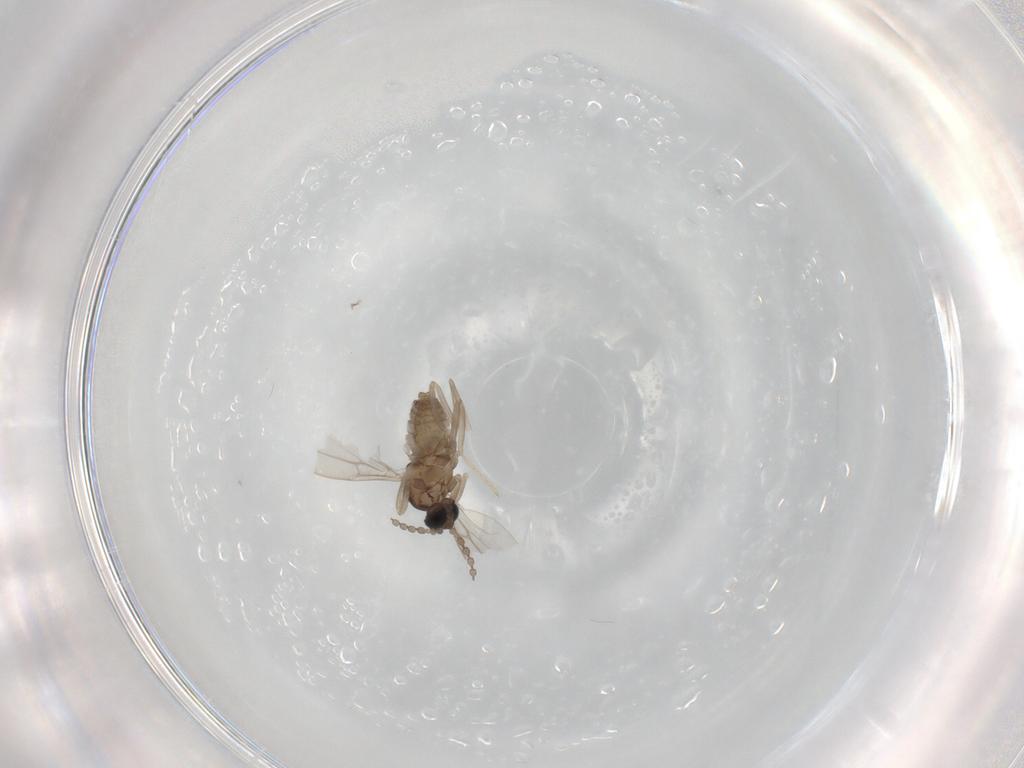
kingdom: Animalia
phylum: Arthropoda
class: Insecta
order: Diptera
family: Cecidomyiidae
